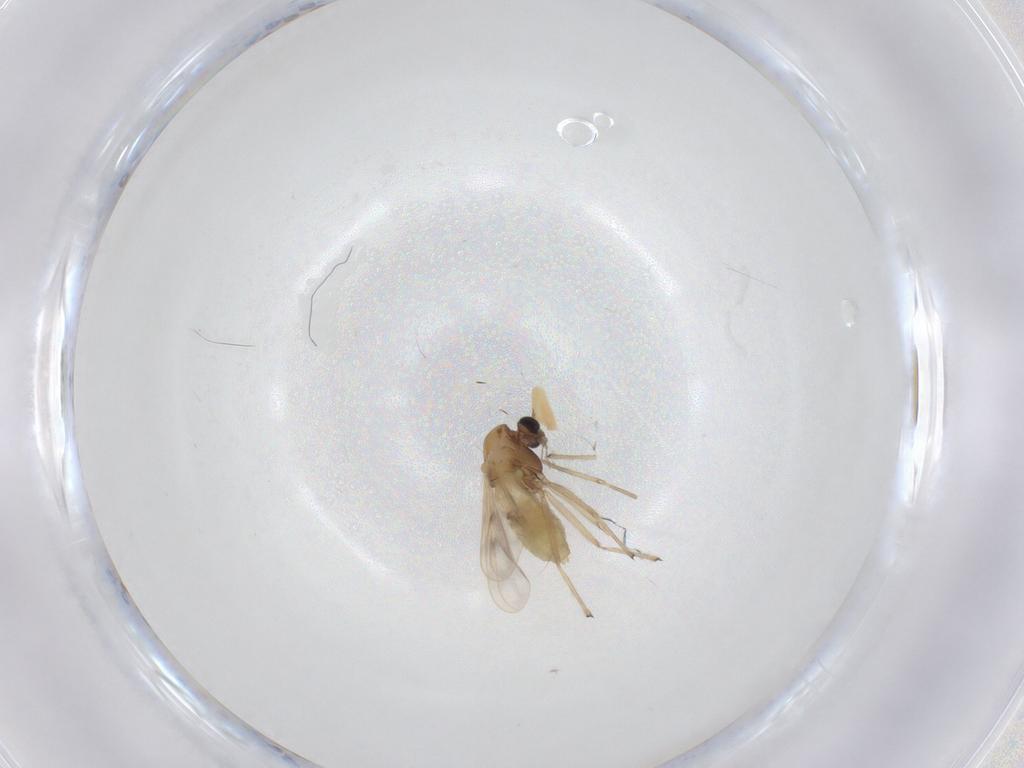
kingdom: Animalia
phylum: Arthropoda
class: Insecta
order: Diptera
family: Chironomidae
